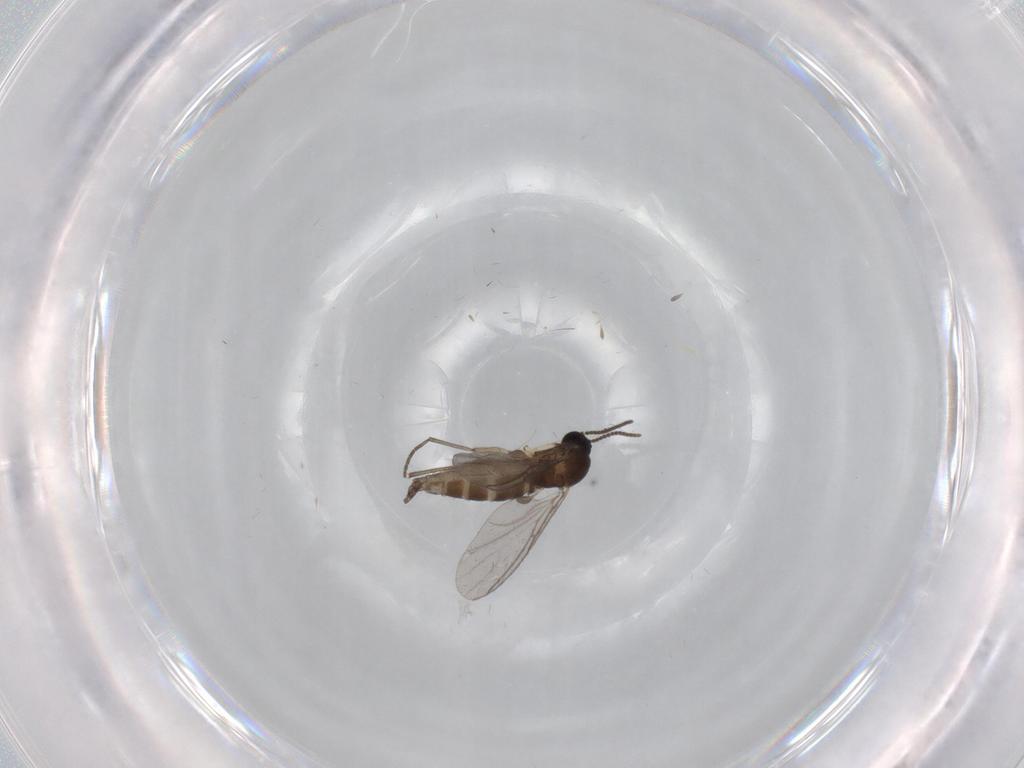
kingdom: Animalia
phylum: Arthropoda
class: Insecta
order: Diptera
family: Sciaridae
